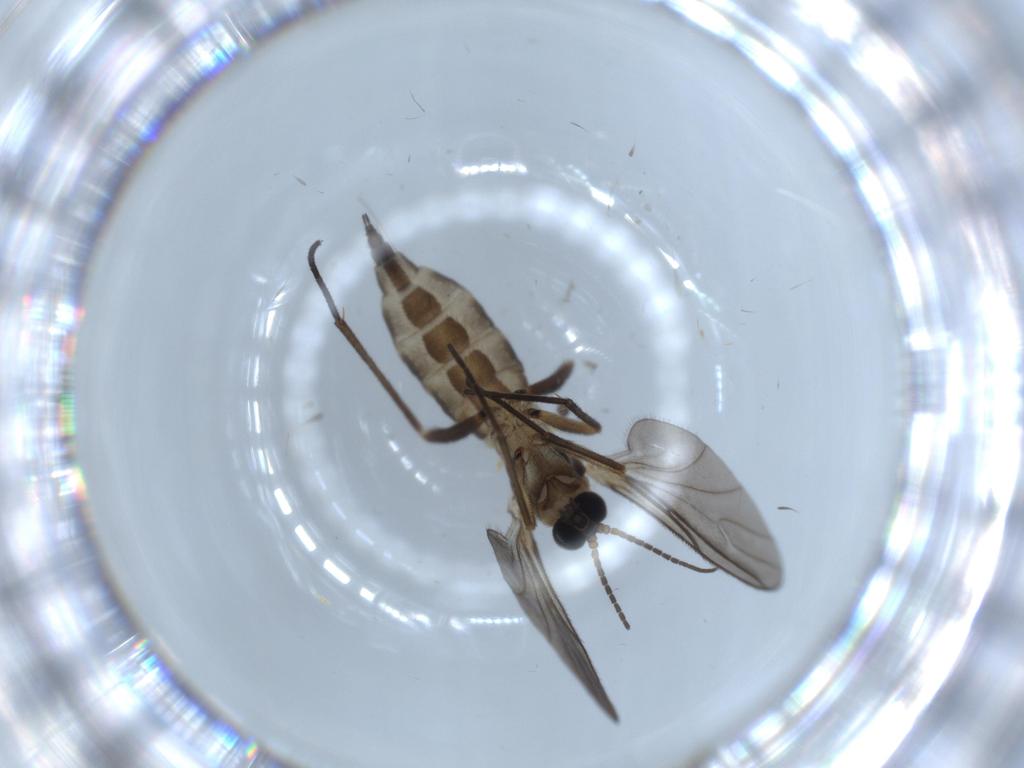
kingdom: Animalia
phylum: Arthropoda
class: Insecta
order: Diptera
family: Sciaridae
